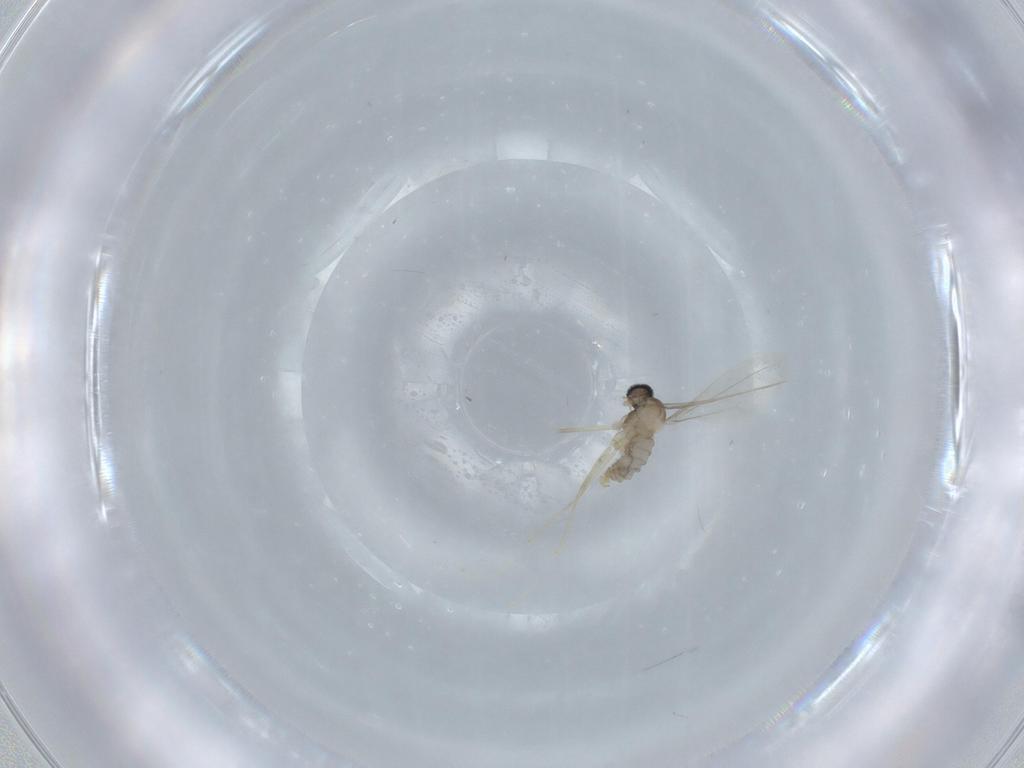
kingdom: Animalia
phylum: Arthropoda
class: Insecta
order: Diptera
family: Cecidomyiidae
